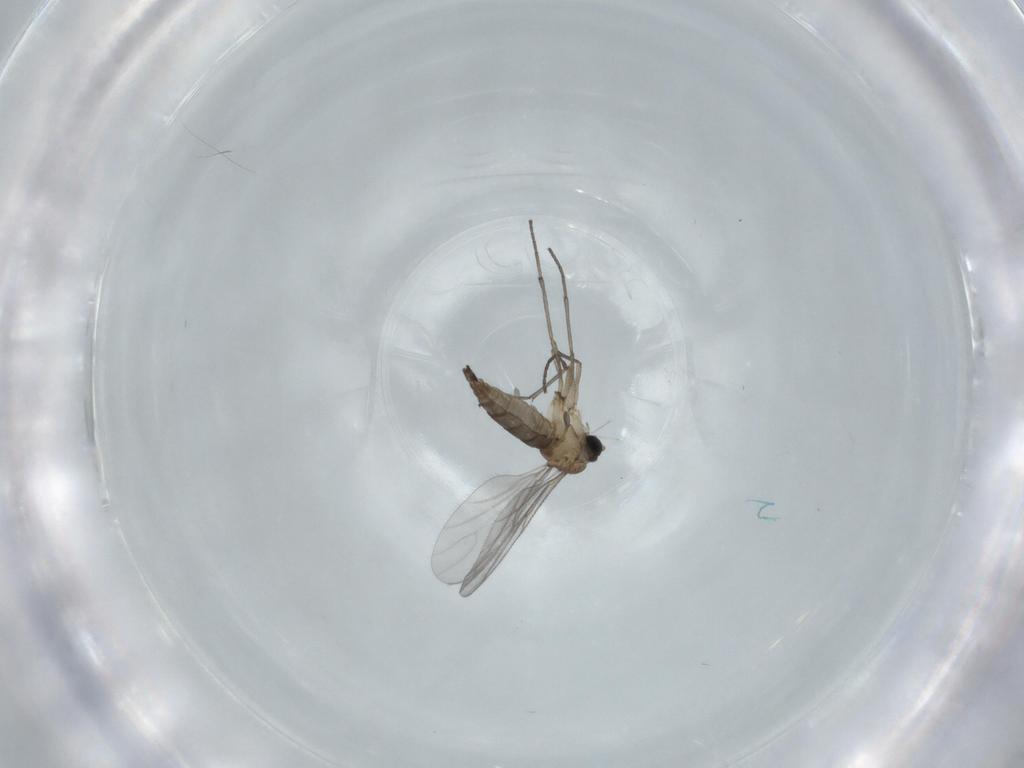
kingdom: Animalia
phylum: Arthropoda
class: Insecta
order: Diptera
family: Sciaridae
